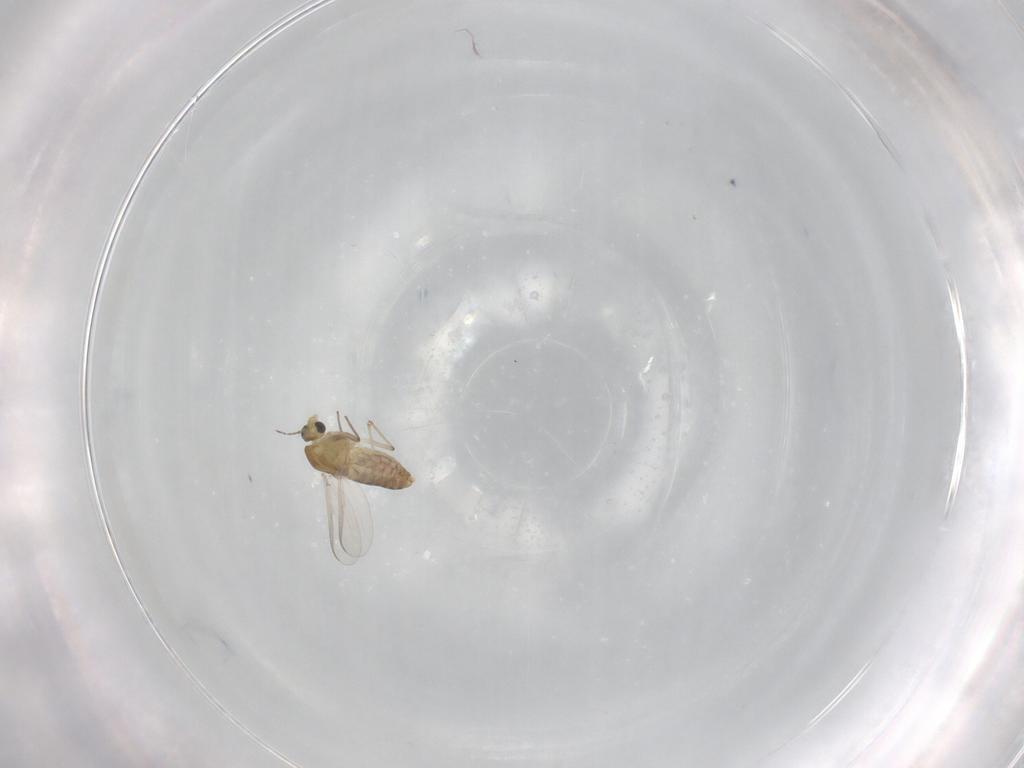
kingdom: Animalia
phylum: Arthropoda
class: Insecta
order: Diptera
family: Chironomidae
